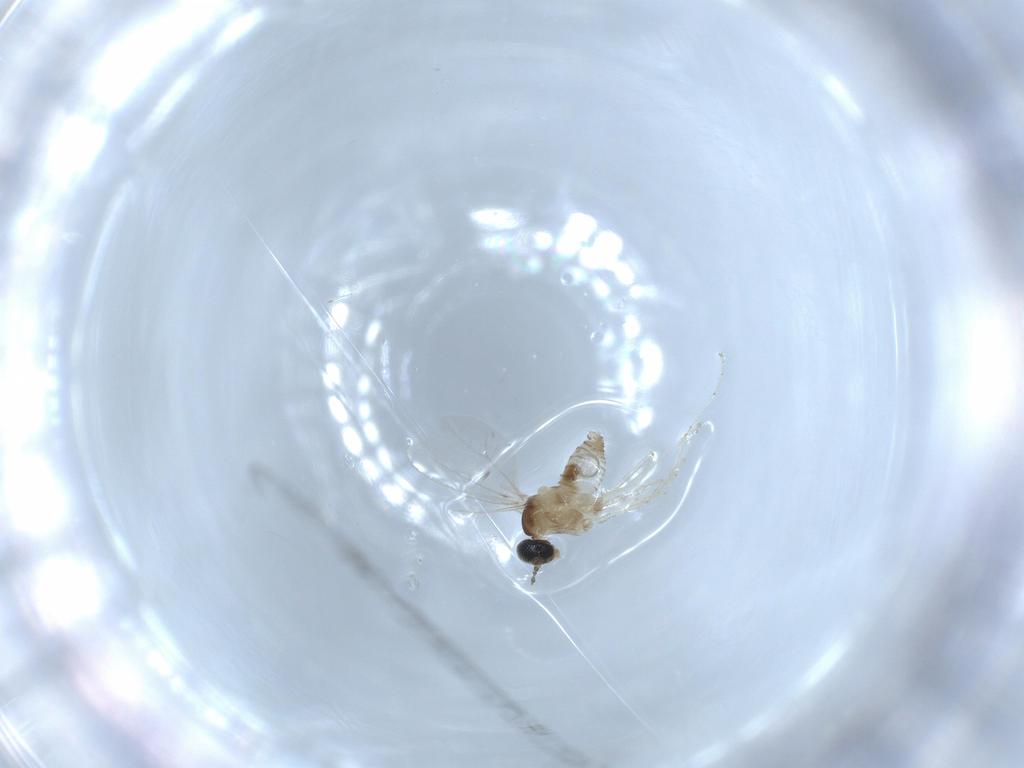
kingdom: Animalia
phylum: Arthropoda
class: Insecta
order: Diptera
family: Cecidomyiidae
